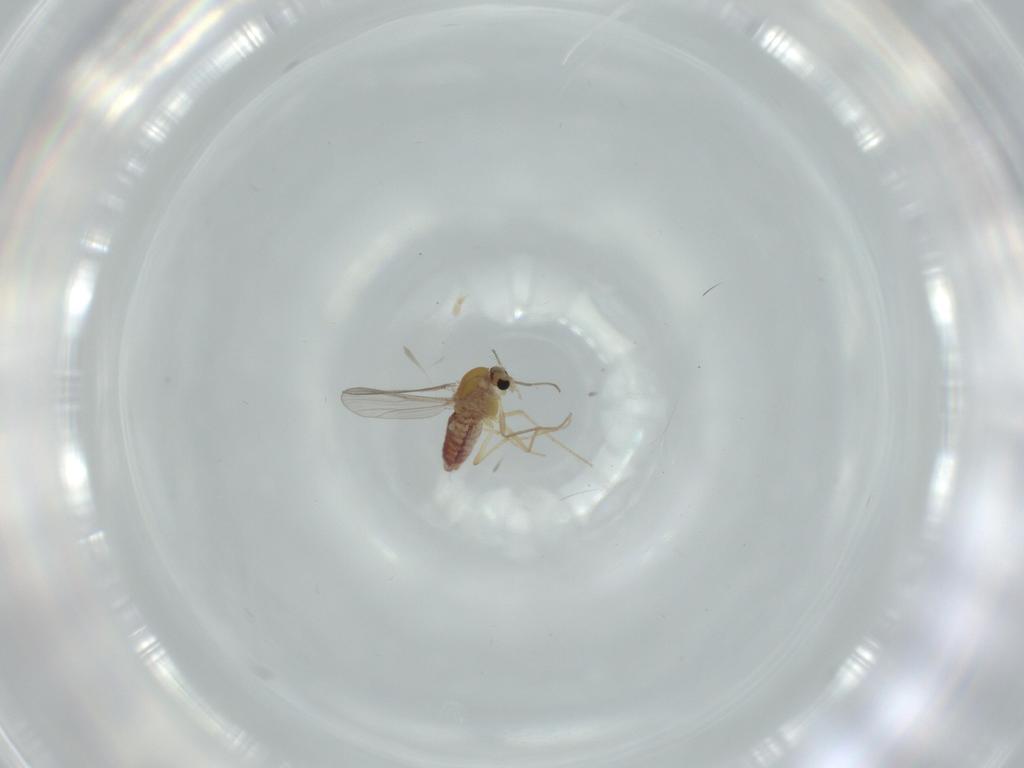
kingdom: Animalia
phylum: Arthropoda
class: Insecta
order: Diptera
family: Chironomidae
